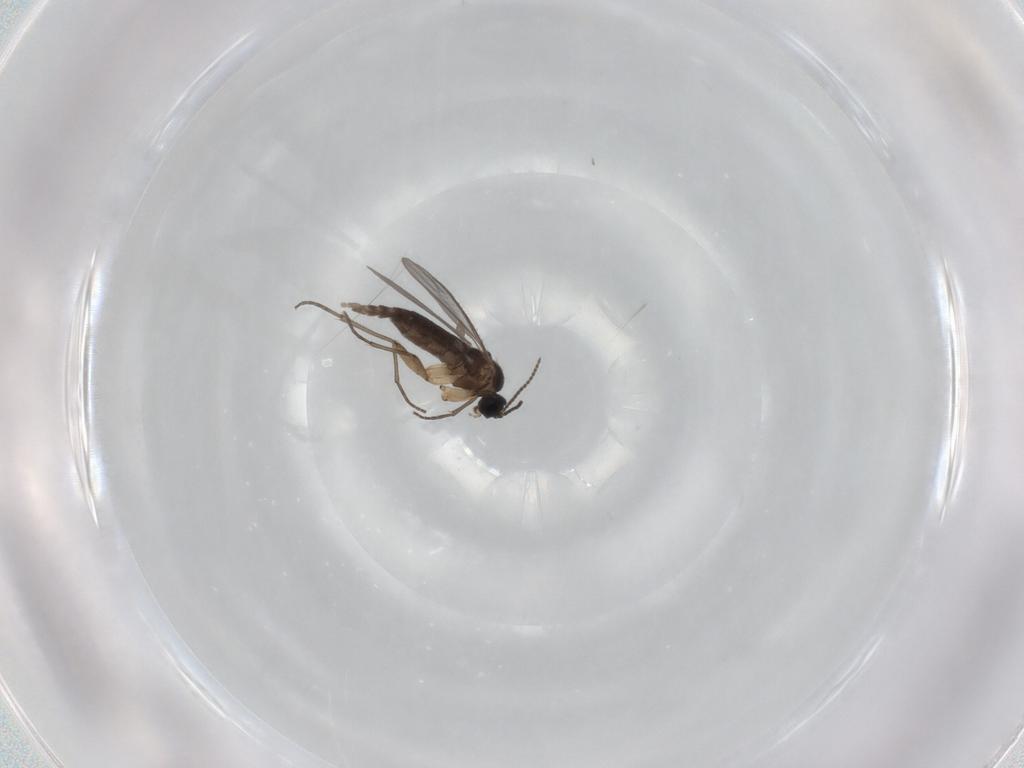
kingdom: Animalia
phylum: Arthropoda
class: Insecta
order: Diptera
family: Sciaridae
